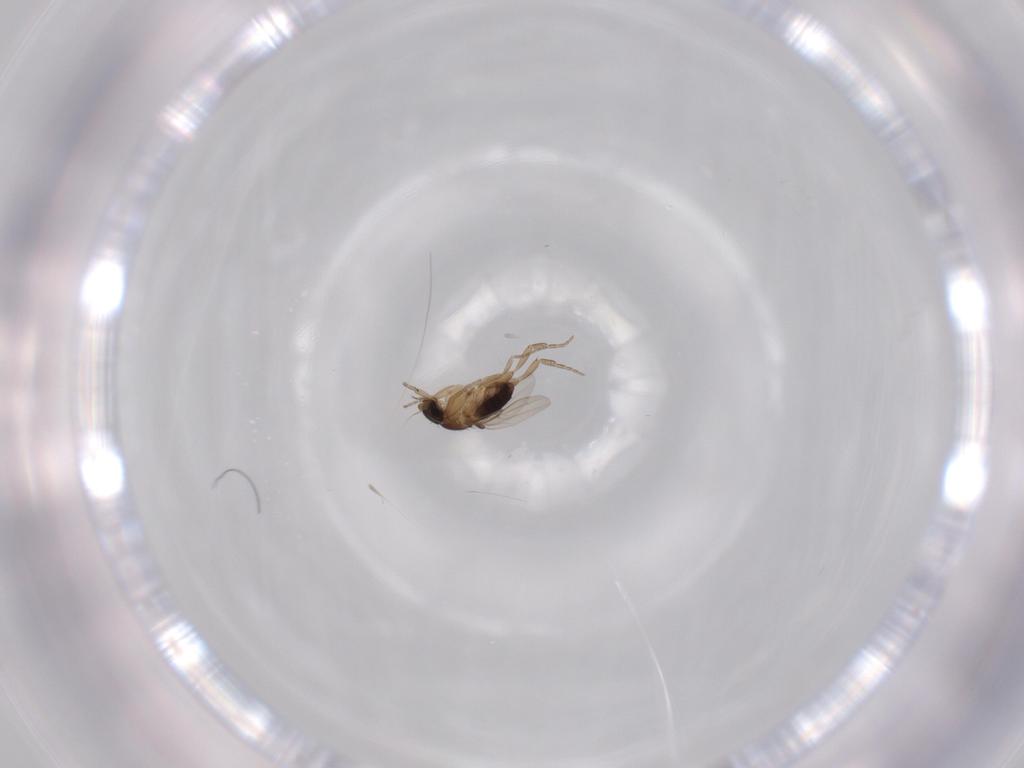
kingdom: Animalia
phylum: Arthropoda
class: Insecta
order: Diptera
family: Phoridae
